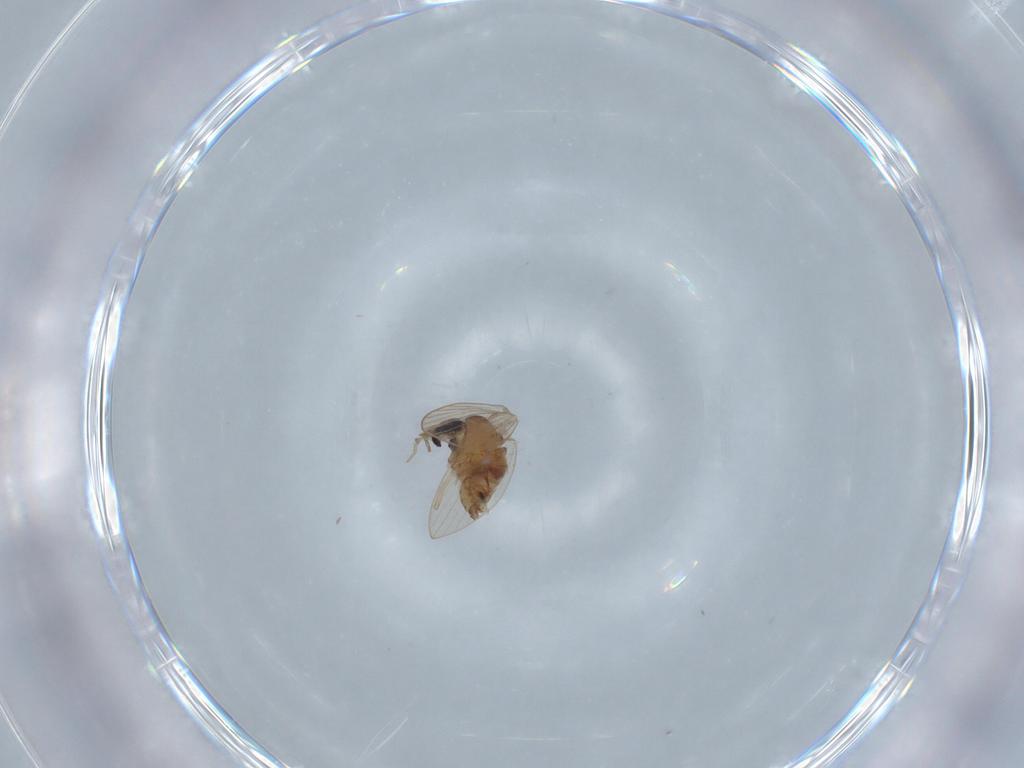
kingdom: Animalia
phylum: Arthropoda
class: Insecta
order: Diptera
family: Psychodidae
